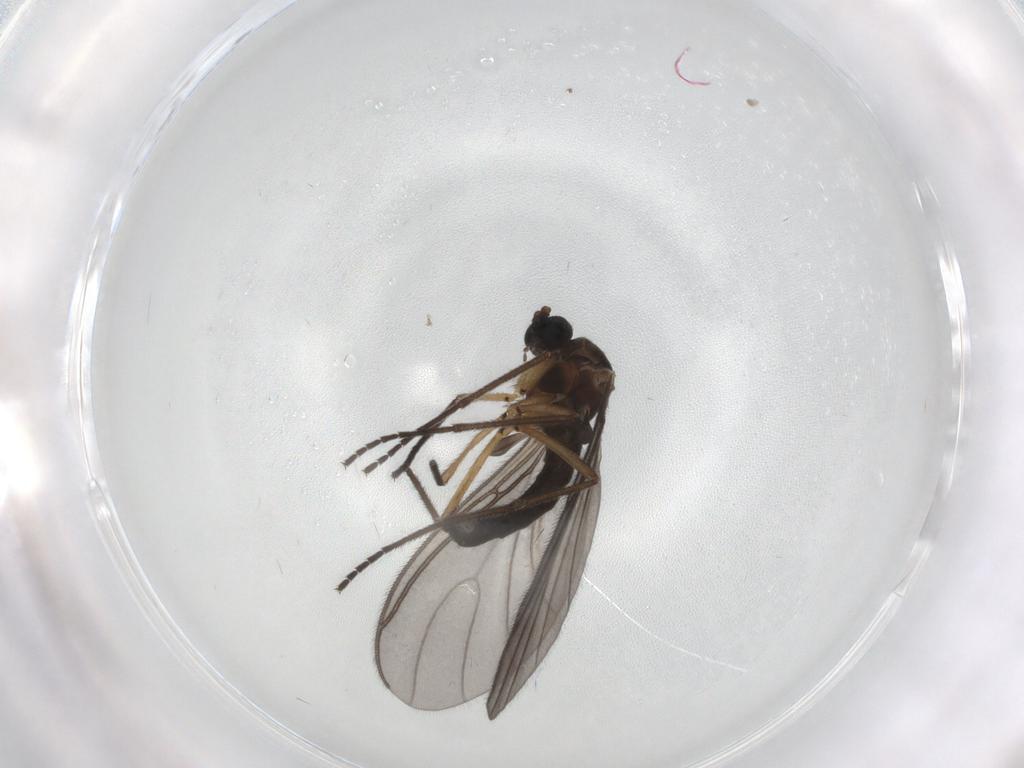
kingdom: Animalia
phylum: Arthropoda
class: Insecta
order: Diptera
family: Sciaridae
